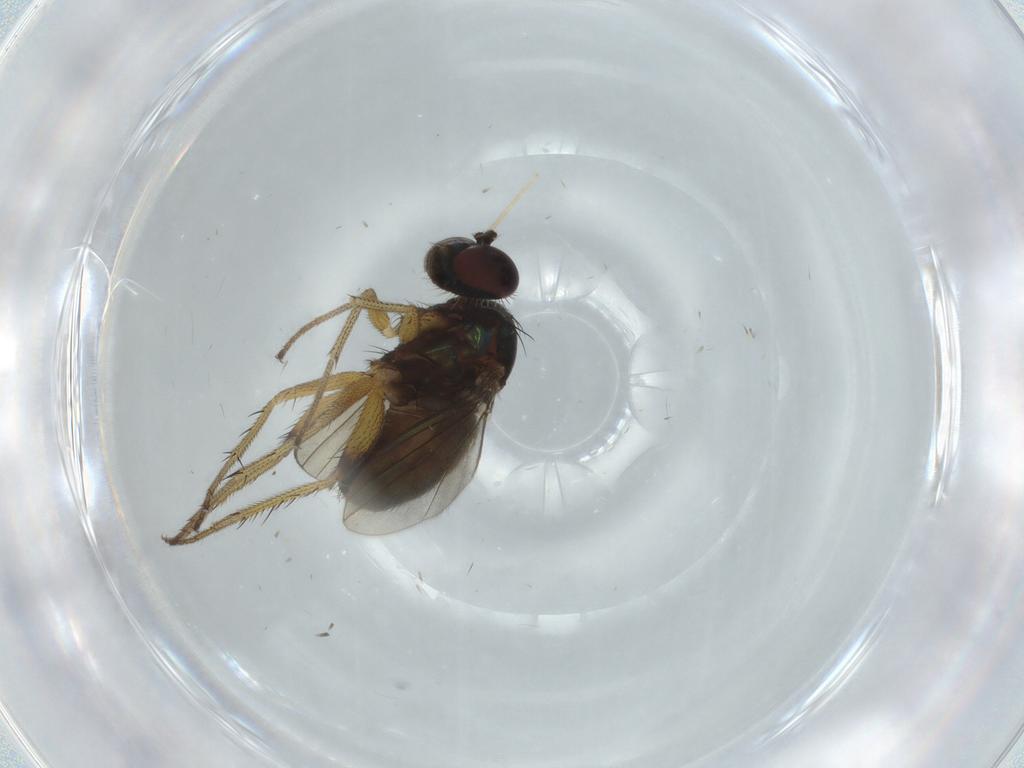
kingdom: Animalia
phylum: Arthropoda
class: Insecta
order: Diptera
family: Dolichopodidae
